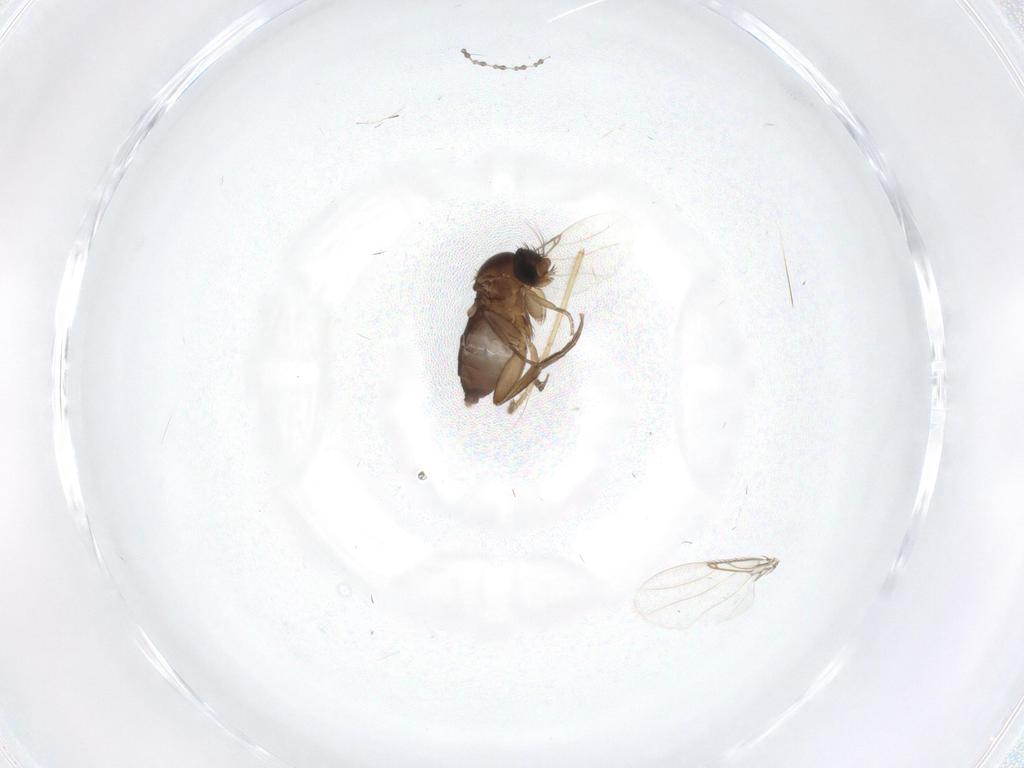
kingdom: Animalia
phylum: Arthropoda
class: Insecta
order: Diptera
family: Phoridae
